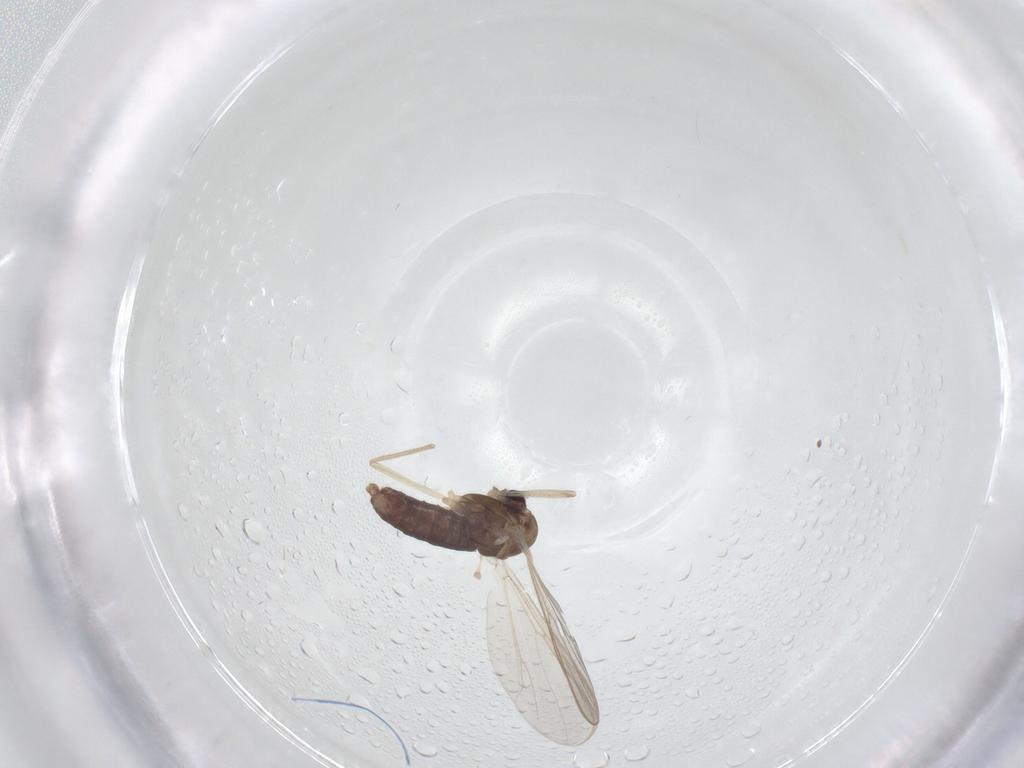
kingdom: Animalia
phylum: Arthropoda
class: Insecta
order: Diptera
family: Chironomidae
